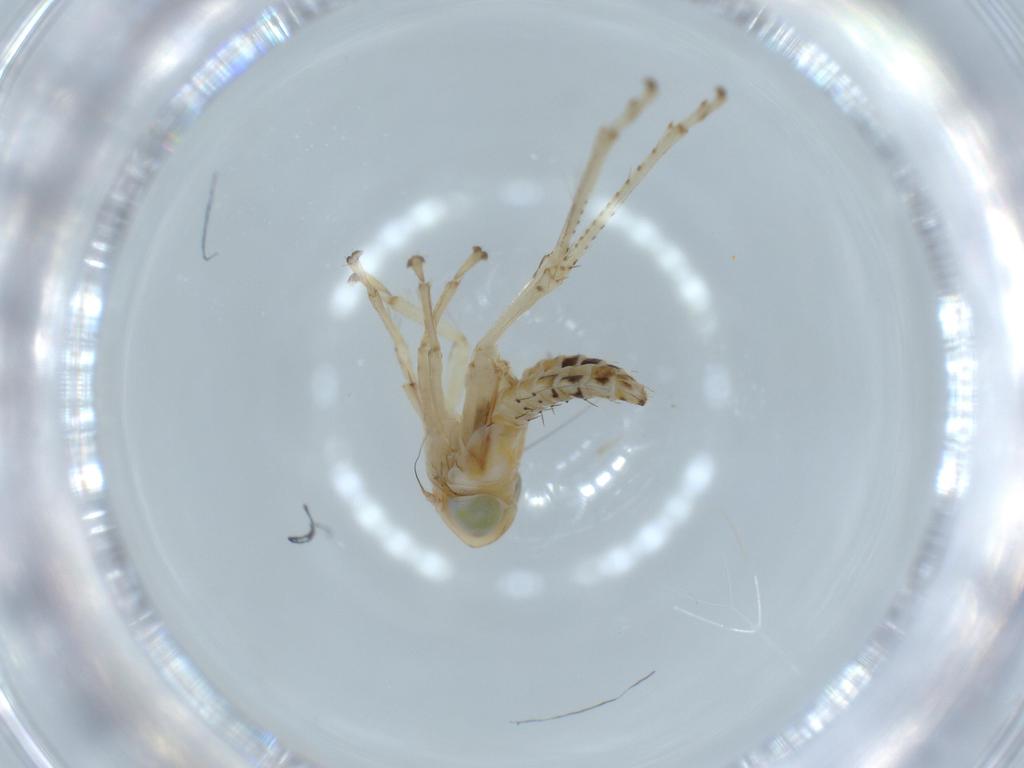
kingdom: Animalia
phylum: Arthropoda
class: Insecta
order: Hemiptera
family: Cicadellidae
